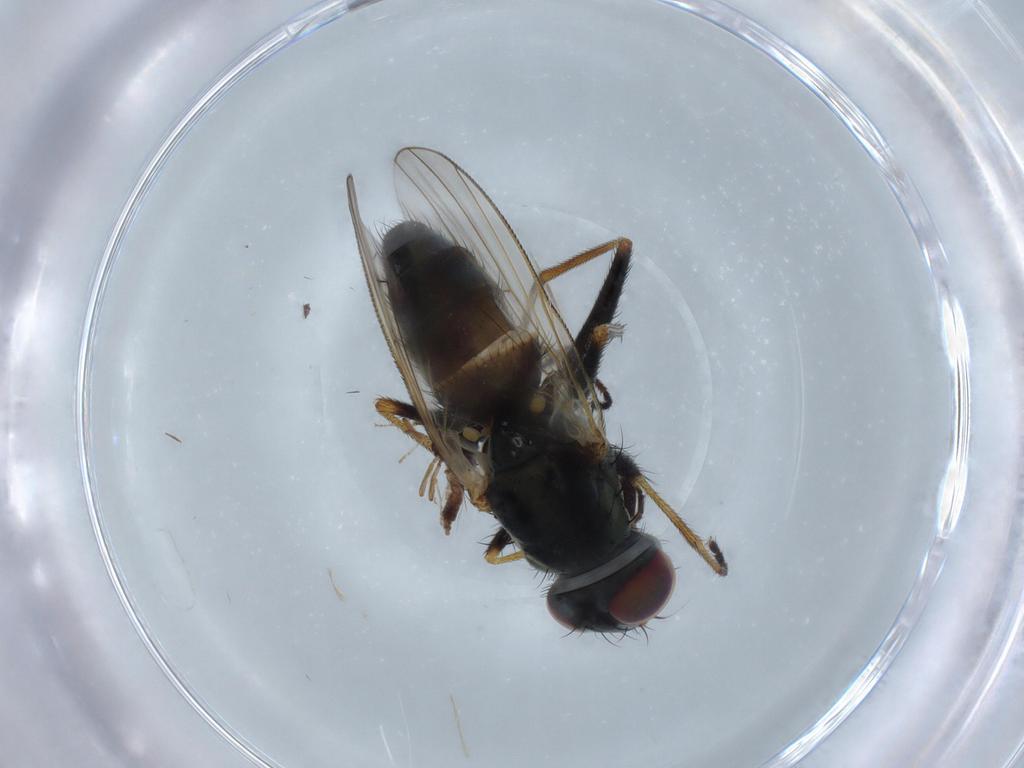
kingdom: Animalia
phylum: Arthropoda
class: Insecta
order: Diptera
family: Muscidae
